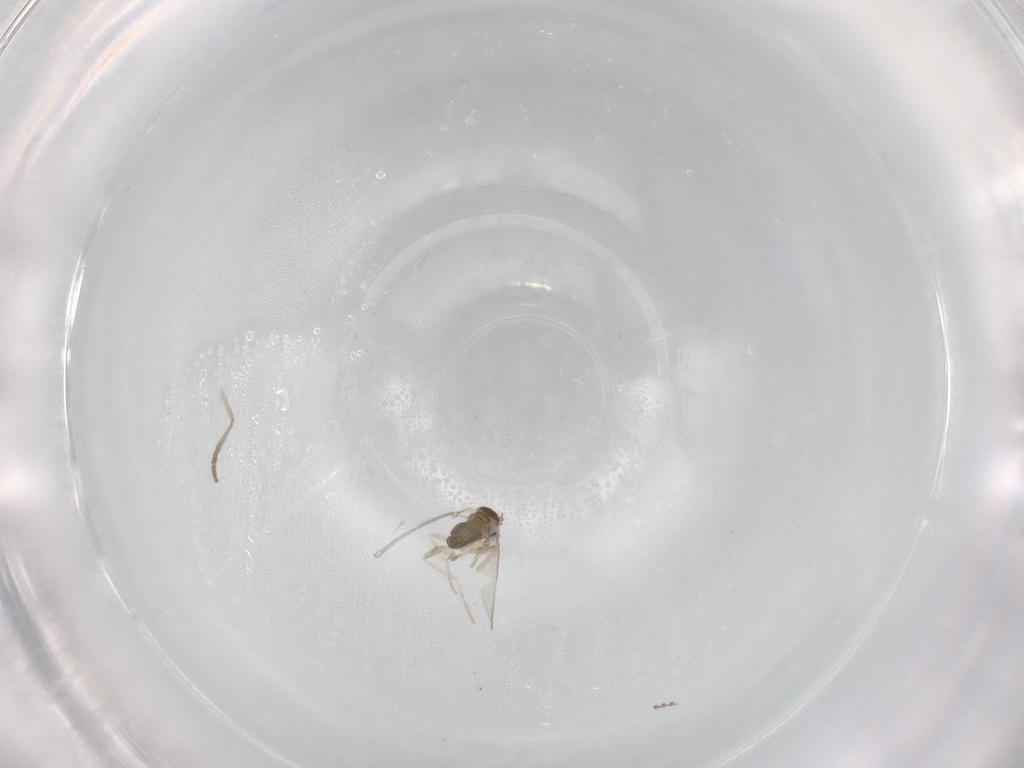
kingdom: Animalia
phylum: Arthropoda
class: Insecta
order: Diptera
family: Cecidomyiidae
